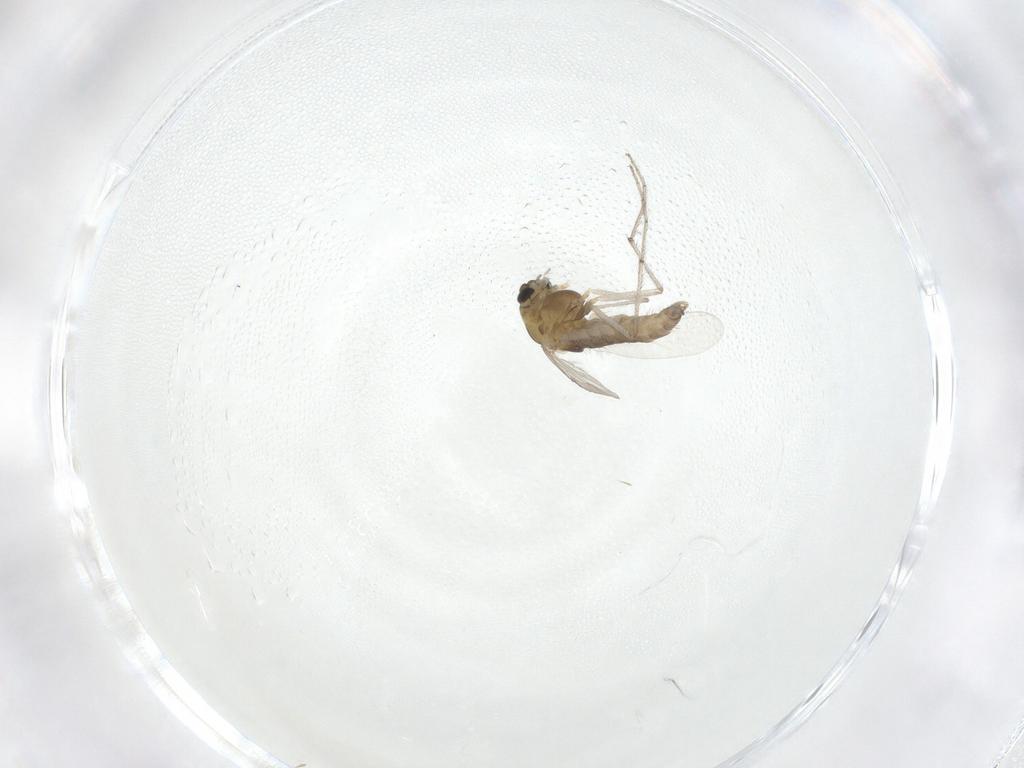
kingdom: Animalia
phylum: Arthropoda
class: Insecta
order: Diptera
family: Chironomidae
